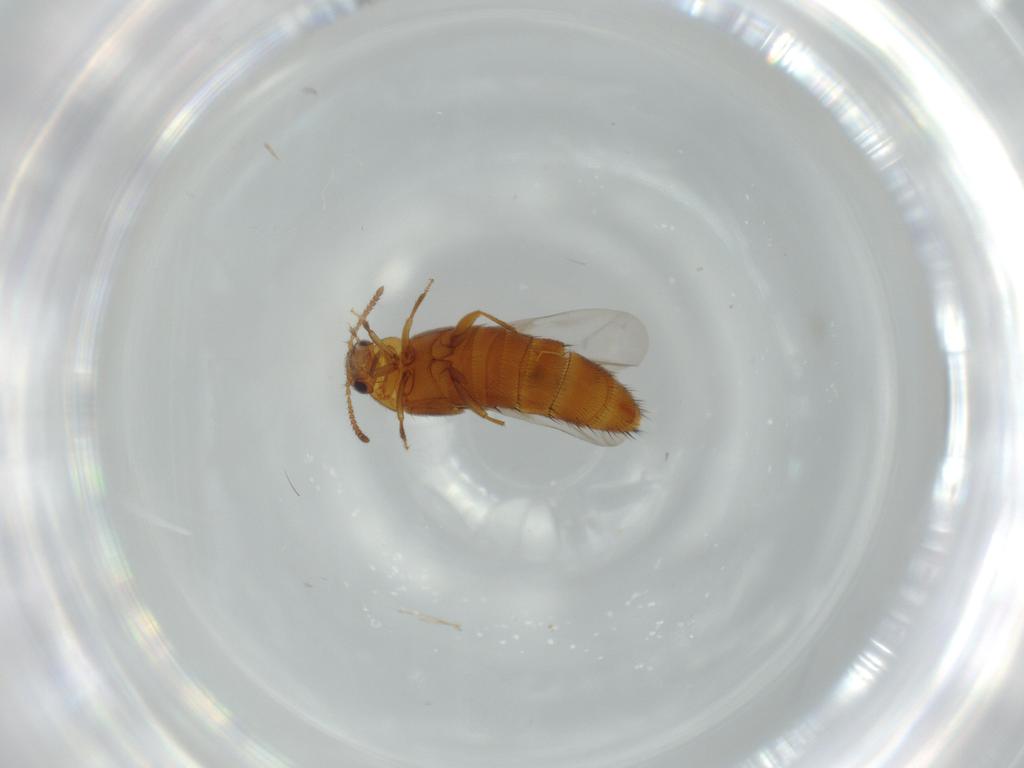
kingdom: Animalia
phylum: Arthropoda
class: Insecta
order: Coleoptera
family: Staphylinidae
